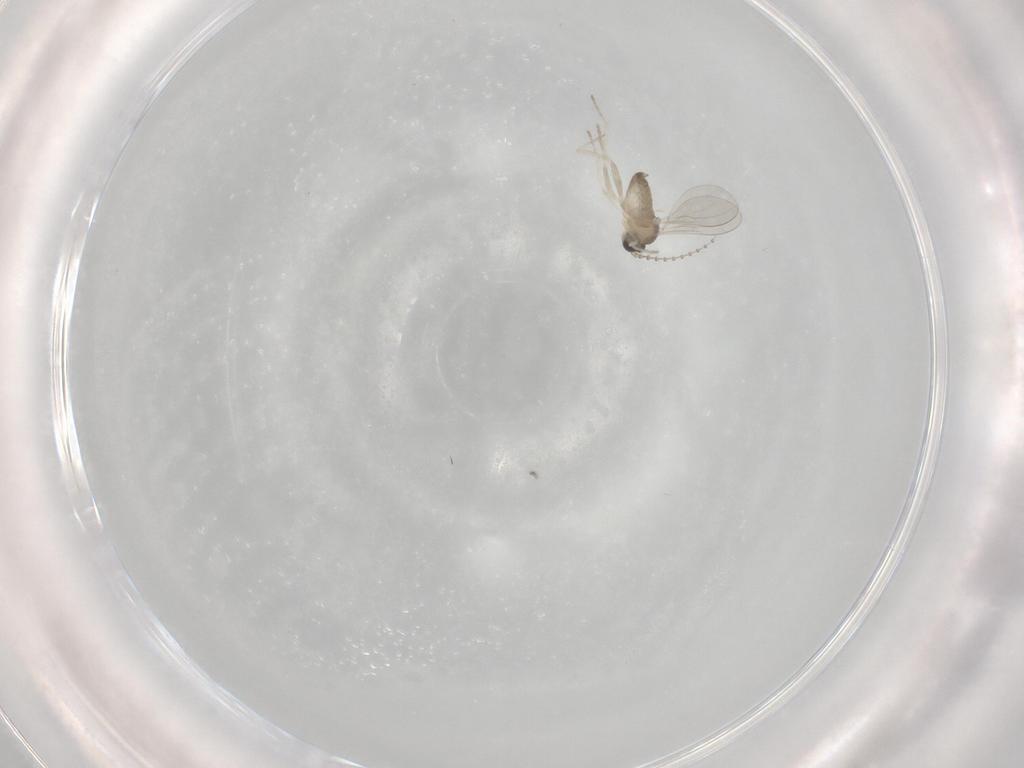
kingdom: Animalia
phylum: Arthropoda
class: Insecta
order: Diptera
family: Cecidomyiidae
